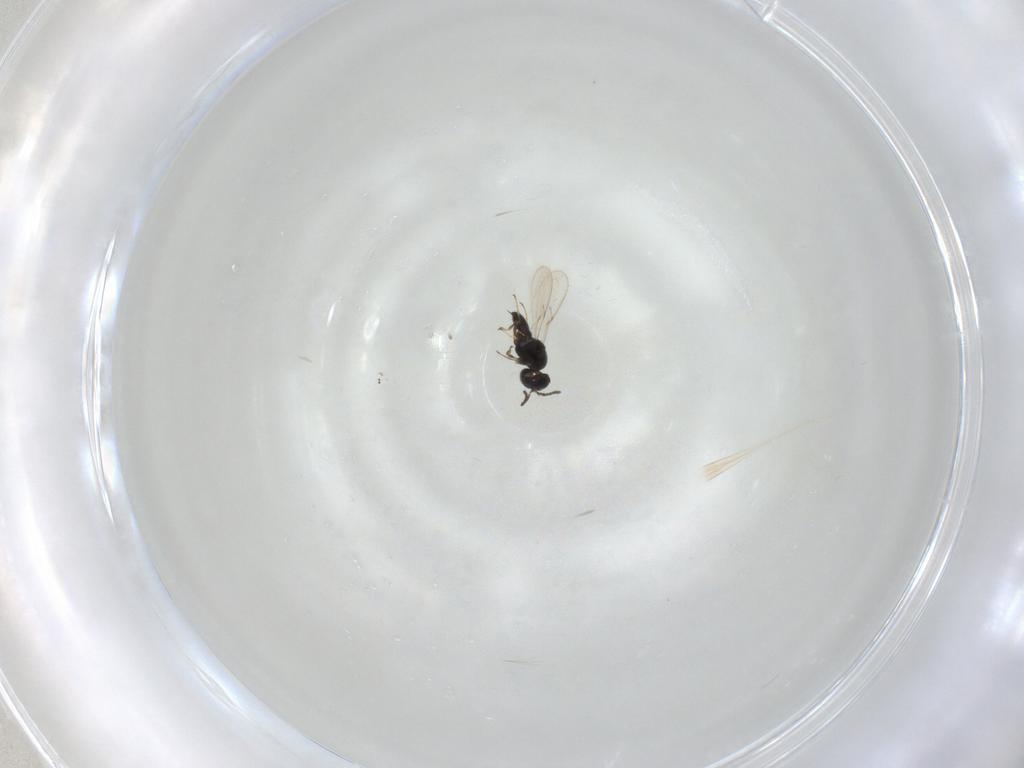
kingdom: Animalia
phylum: Arthropoda
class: Insecta
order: Hymenoptera
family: Scelionidae
